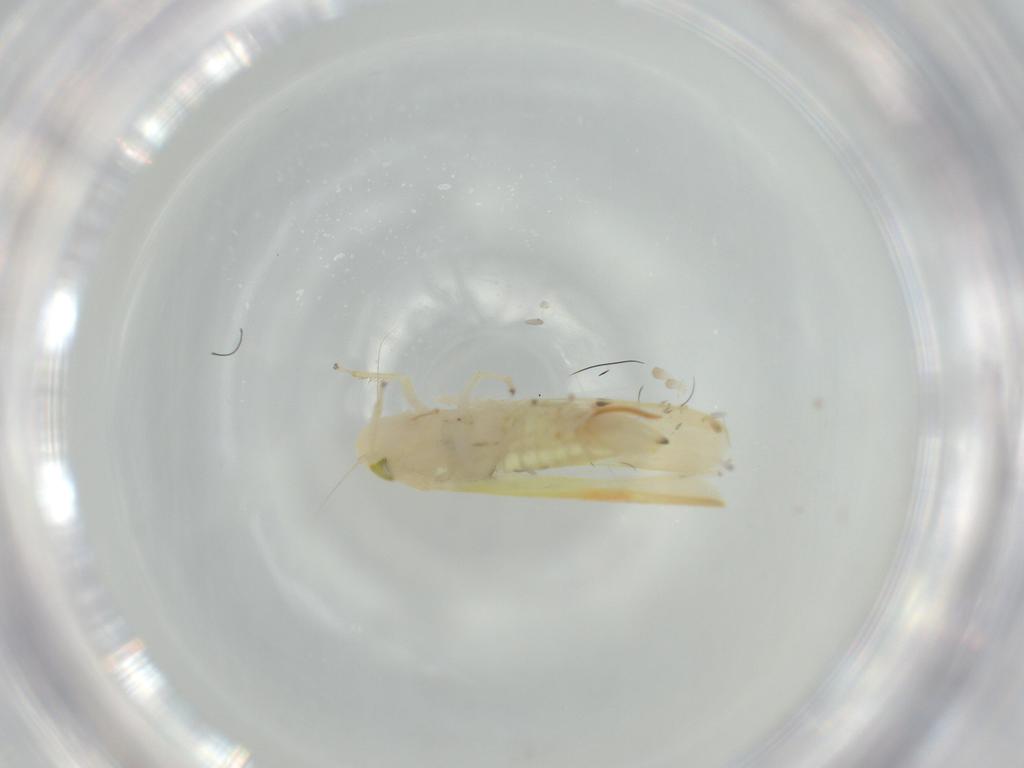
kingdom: Animalia
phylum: Arthropoda
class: Insecta
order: Hemiptera
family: Cicadellidae
